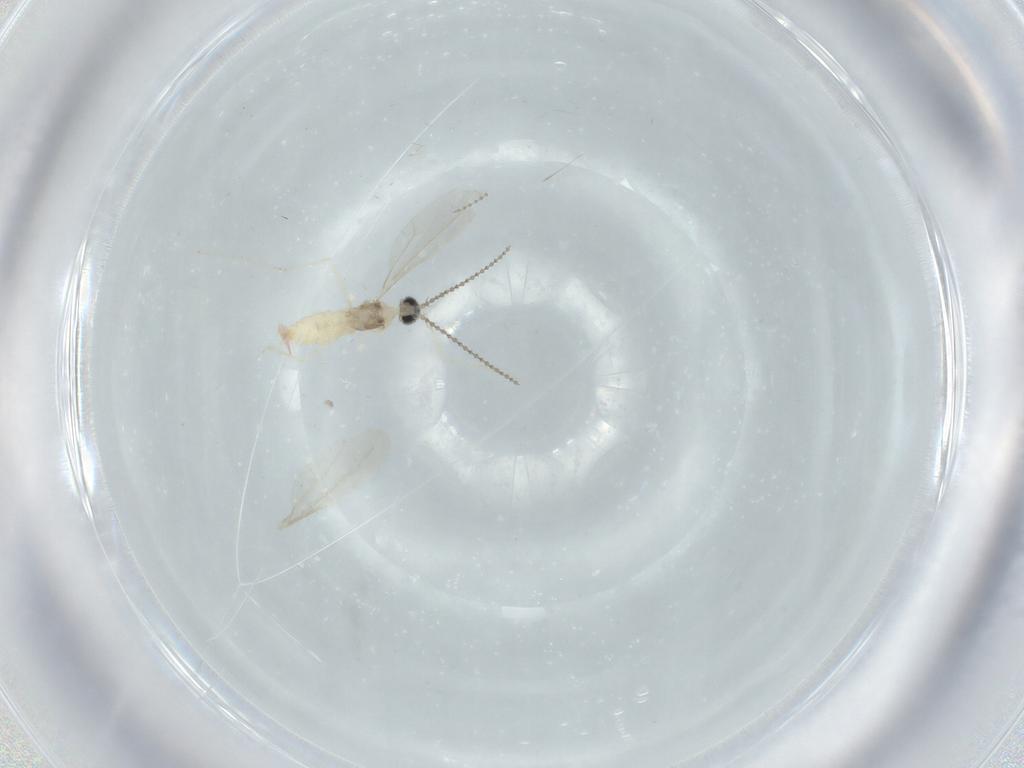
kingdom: Animalia
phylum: Arthropoda
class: Insecta
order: Diptera
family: Cecidomyiidae
